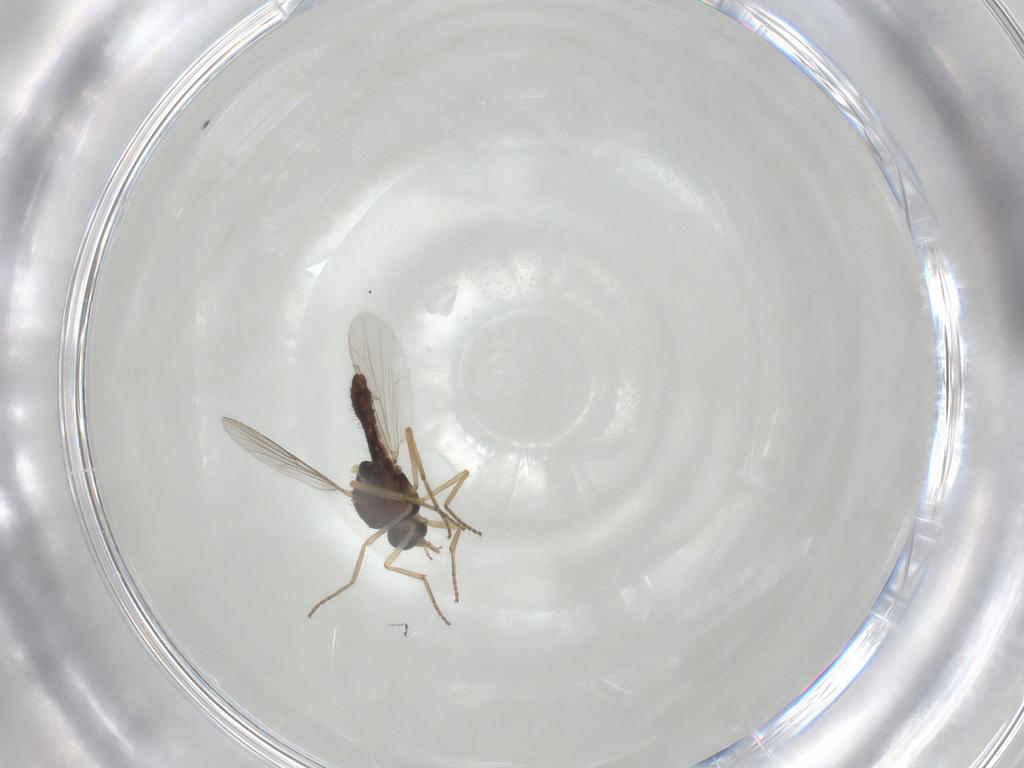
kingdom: Animalia
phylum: Arthropoda
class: Insecta
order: Diptera
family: Ceratopogonidae
